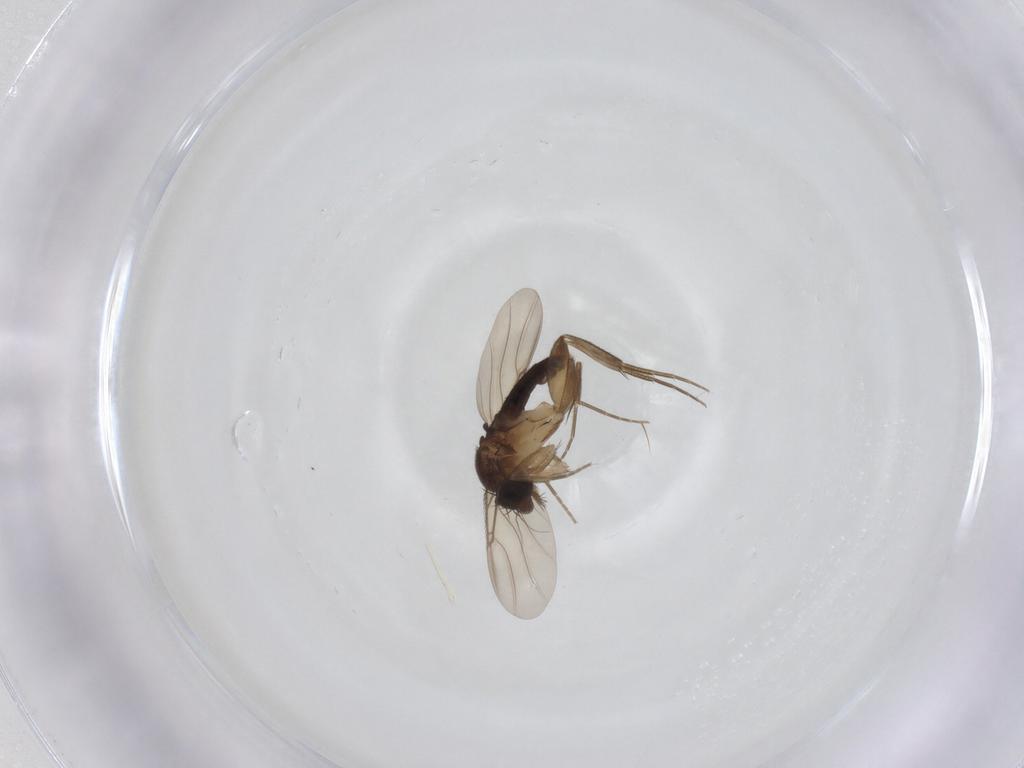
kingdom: Animalia
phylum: Arthropoda
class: Insecta
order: Diptera
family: Phoridae
